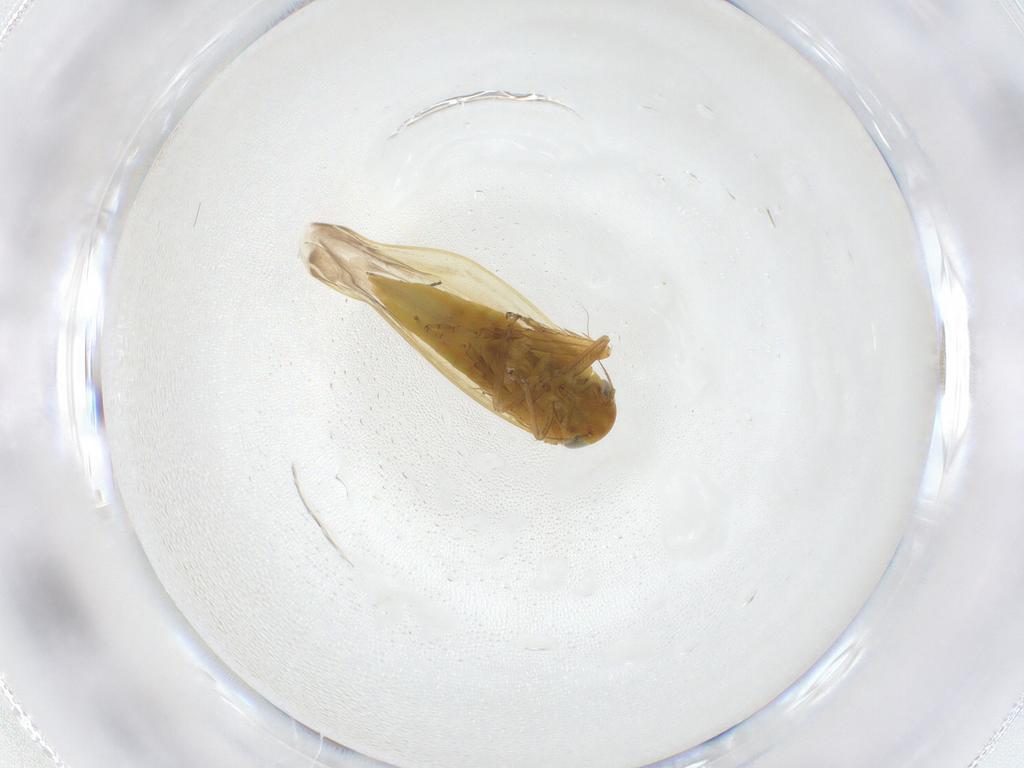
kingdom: Animalia
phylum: Arthropoda
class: Insecta
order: Hemiptera
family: Cicadellidae
